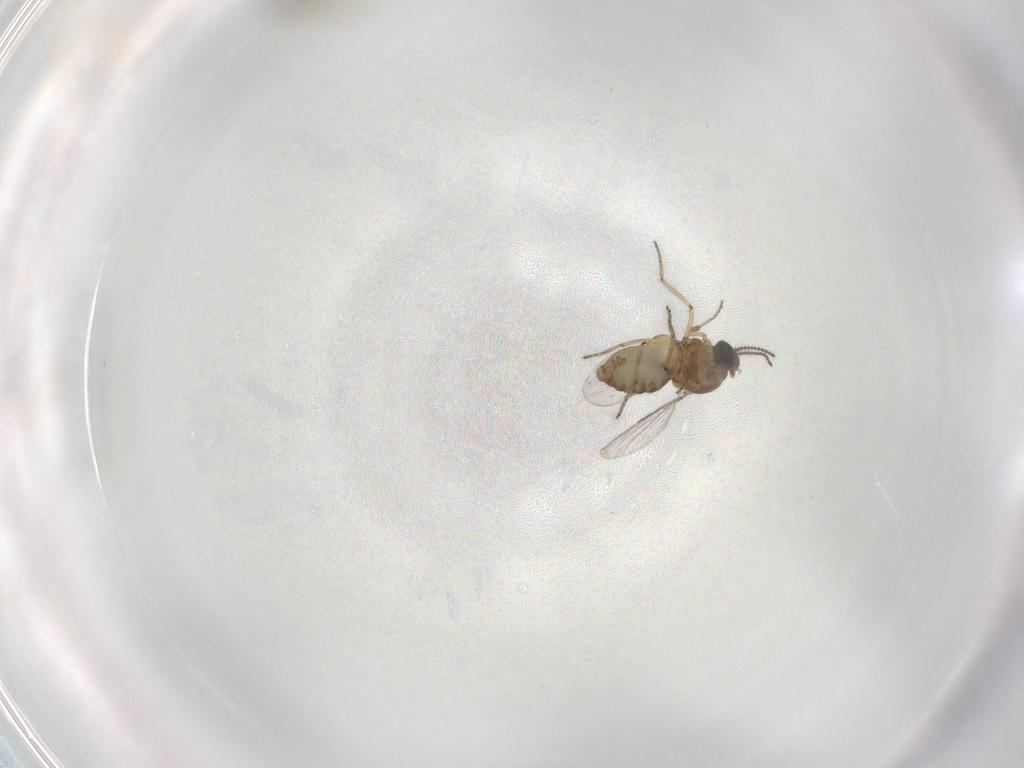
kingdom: Animalia
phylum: Arthropoda
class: Insecta
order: Diptera
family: Ceratopogonidae
